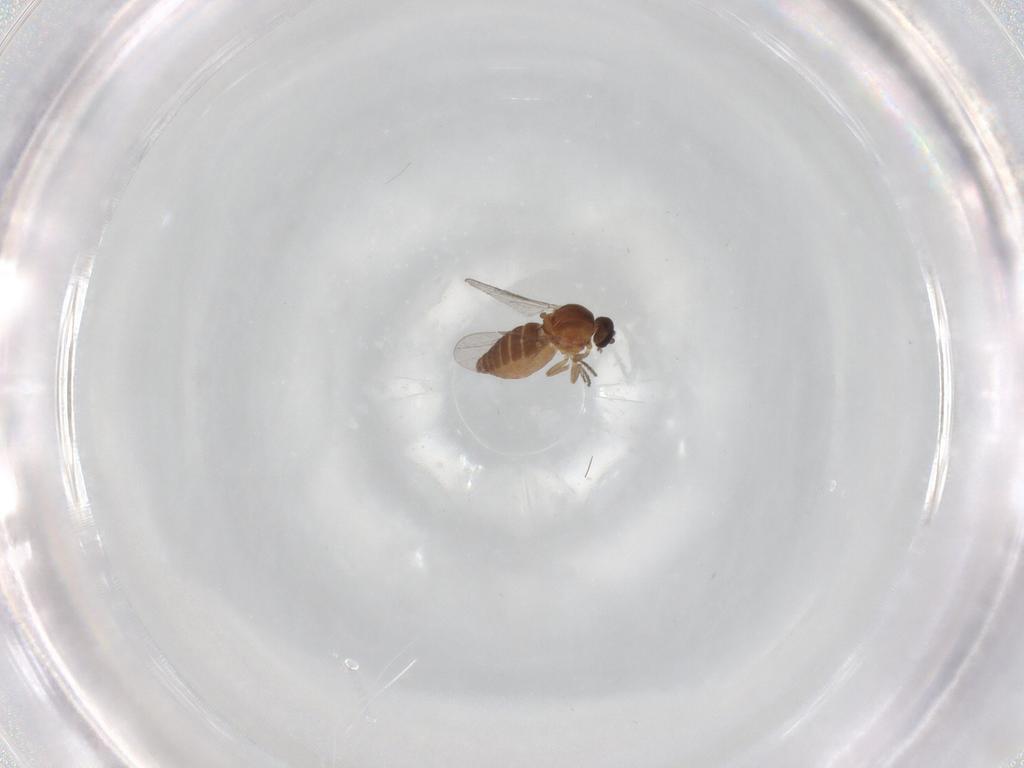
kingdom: Animalia
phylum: Arthropoda
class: Insecta
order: Diptera
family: Ceratopogonidae
